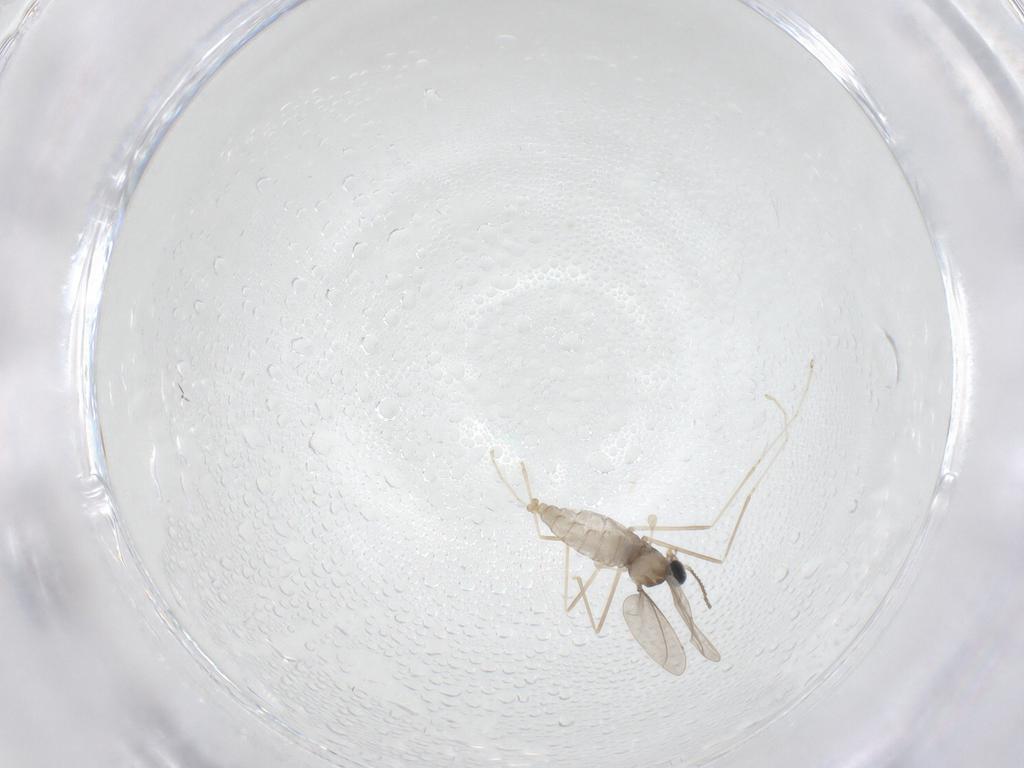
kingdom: Animalia
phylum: Arthropoda
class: Insecta
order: Diptera
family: Cecidomyiidae
